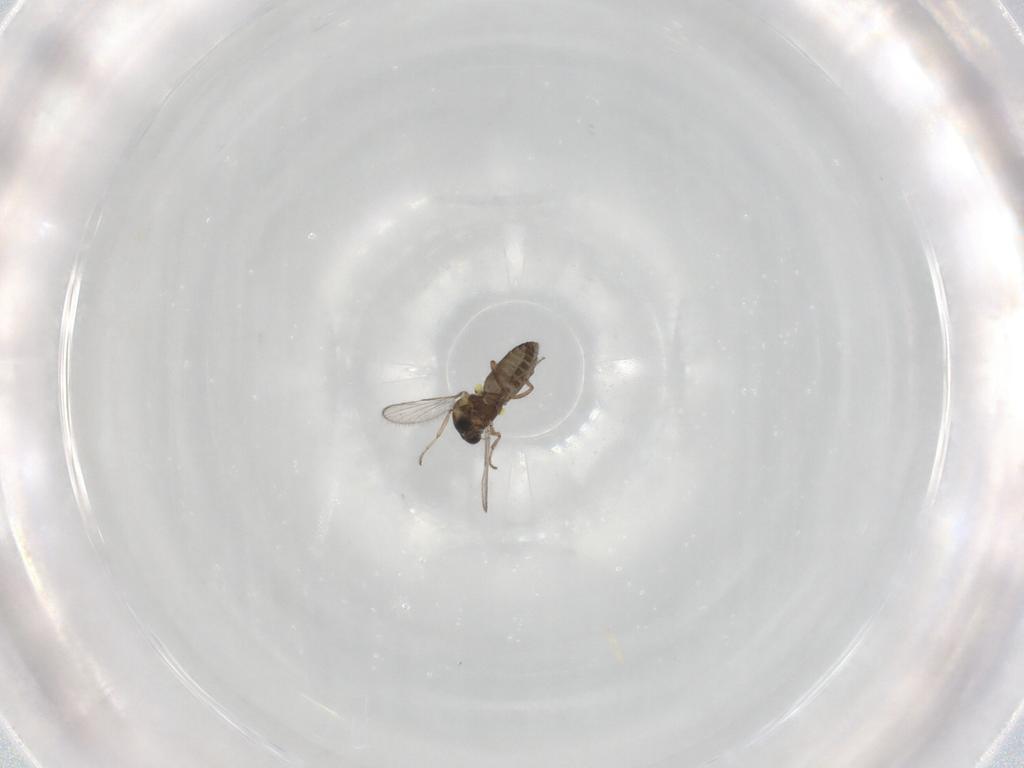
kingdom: Animalia
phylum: Arthropoda
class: Insecta
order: Diptera
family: Ceratopogonidae
